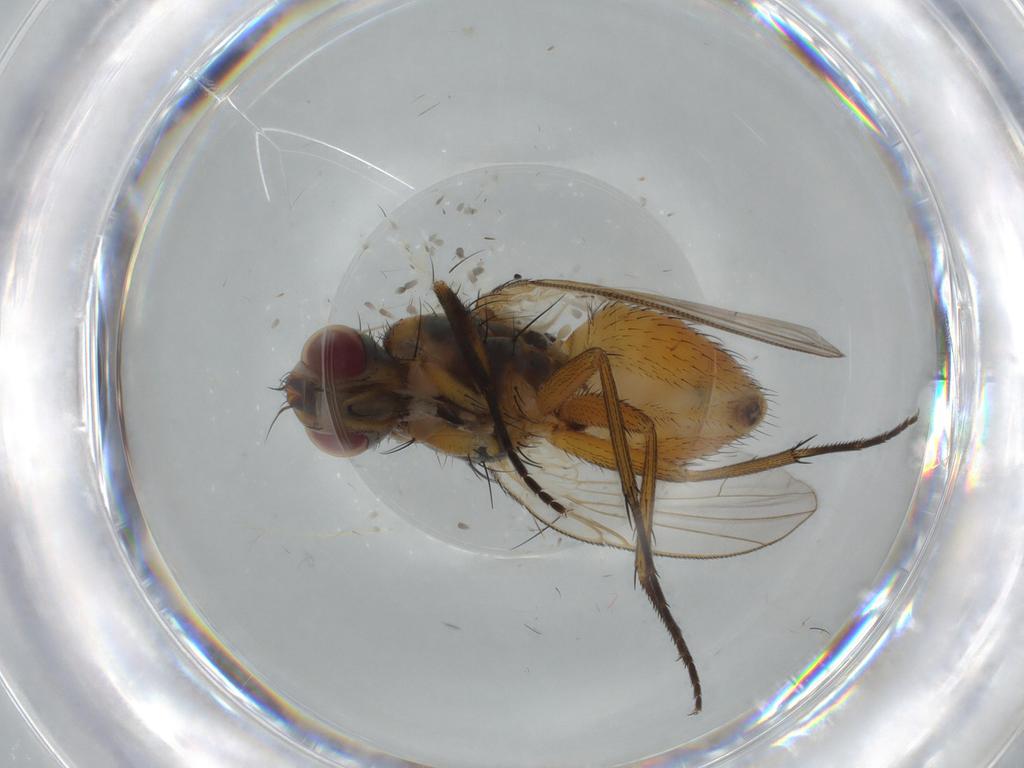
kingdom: Animalia
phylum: Arthropoda
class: Insecta
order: Diptera
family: Muscidae
